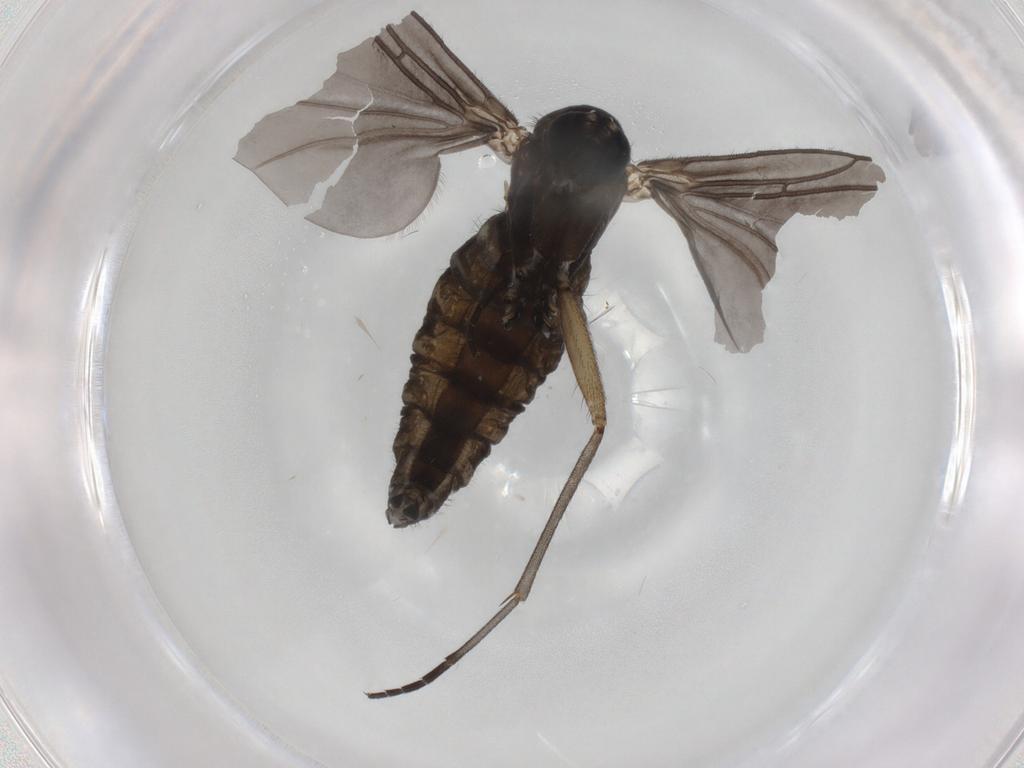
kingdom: Animalia
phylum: Arthropoda
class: Insecta
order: Diptera
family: Sciaridae
